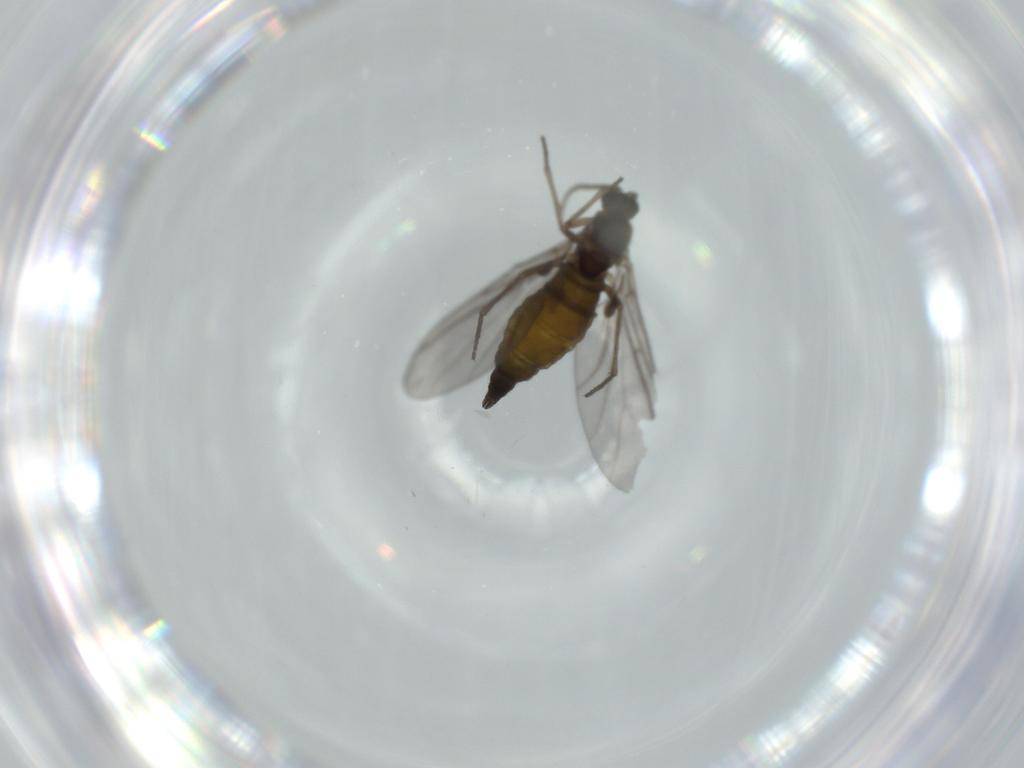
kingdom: Animalia
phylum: Arthropoda
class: Insecta
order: Diptera
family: Sciaridae
